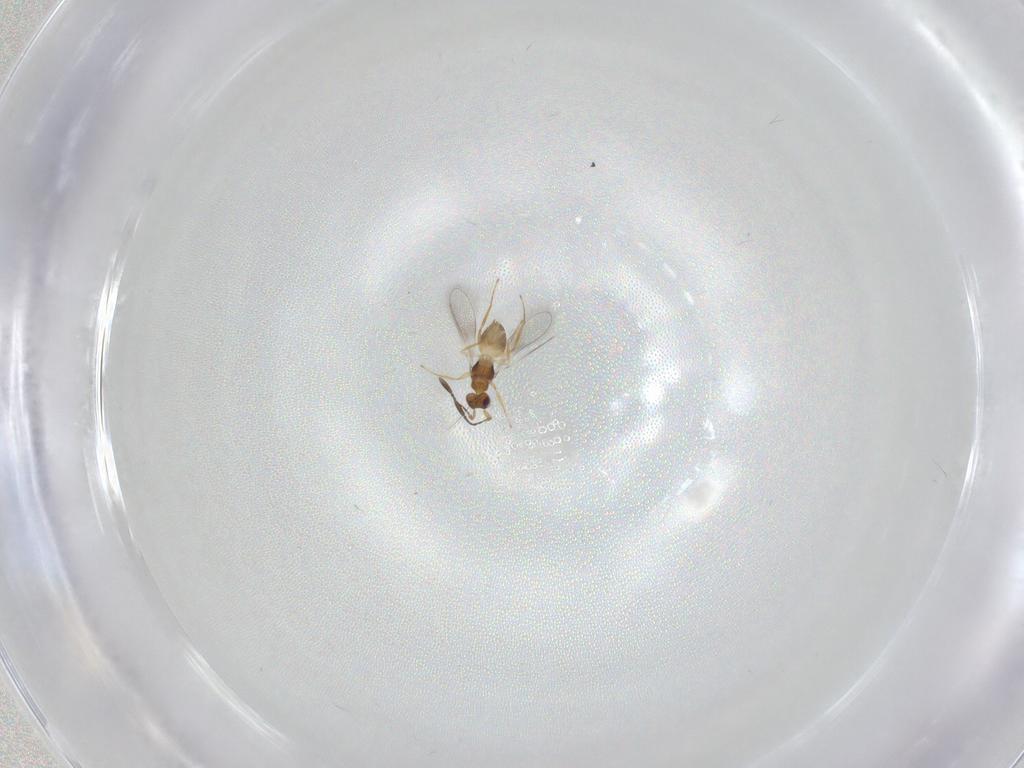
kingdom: Animalia
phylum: Arthropoda
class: Insecta
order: Hymenoptera
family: Mymaridae
